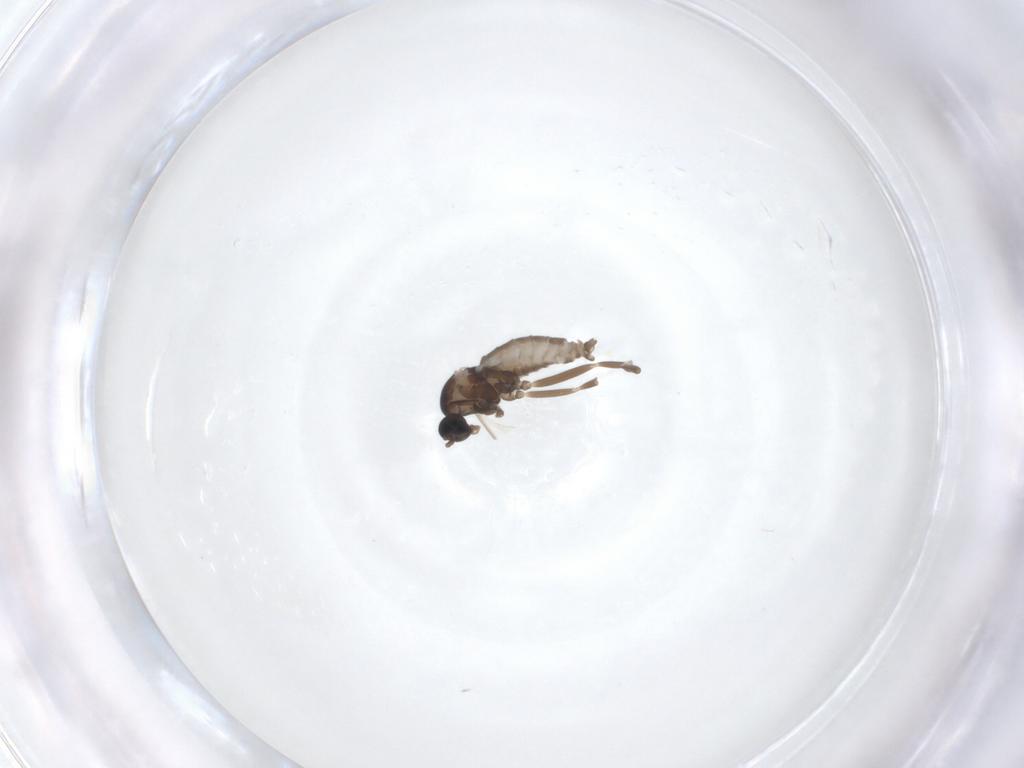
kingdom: Animalia
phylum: Arthropoda
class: Insecta
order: Diptera
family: Cecidomyiidae
